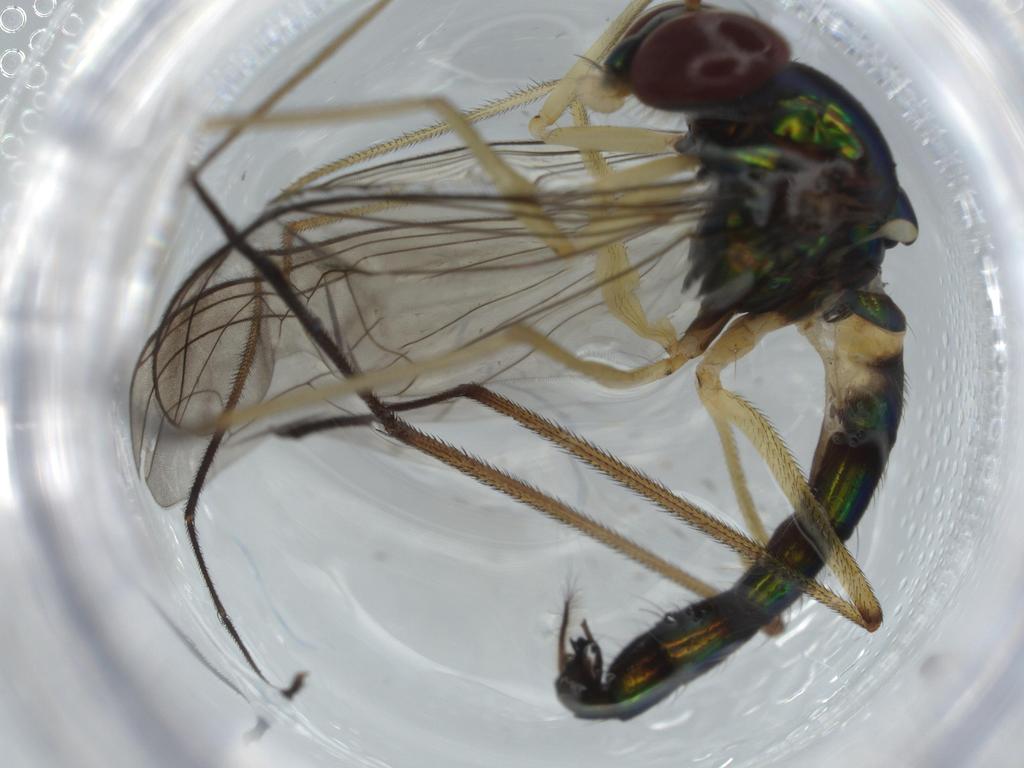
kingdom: Animalia
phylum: Arthropoda
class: Insecta
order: Diptera
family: Dolichopodidae
